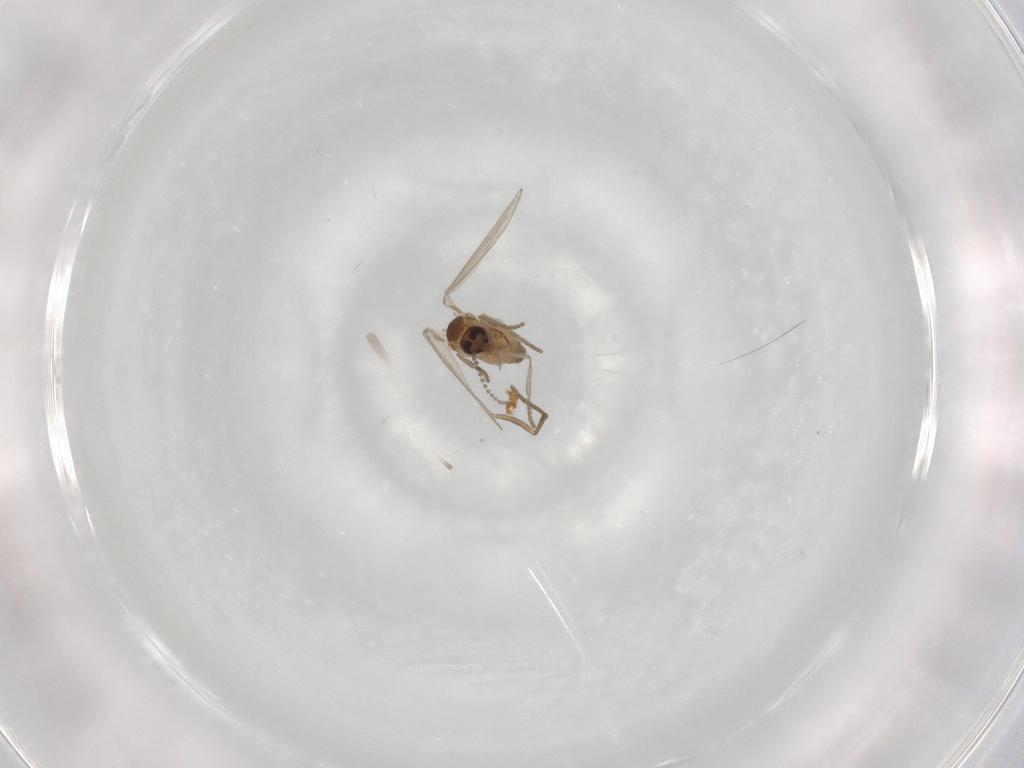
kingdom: Animalia
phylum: Arthropoda
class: Insecta
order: Diptera
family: Psychodidae
